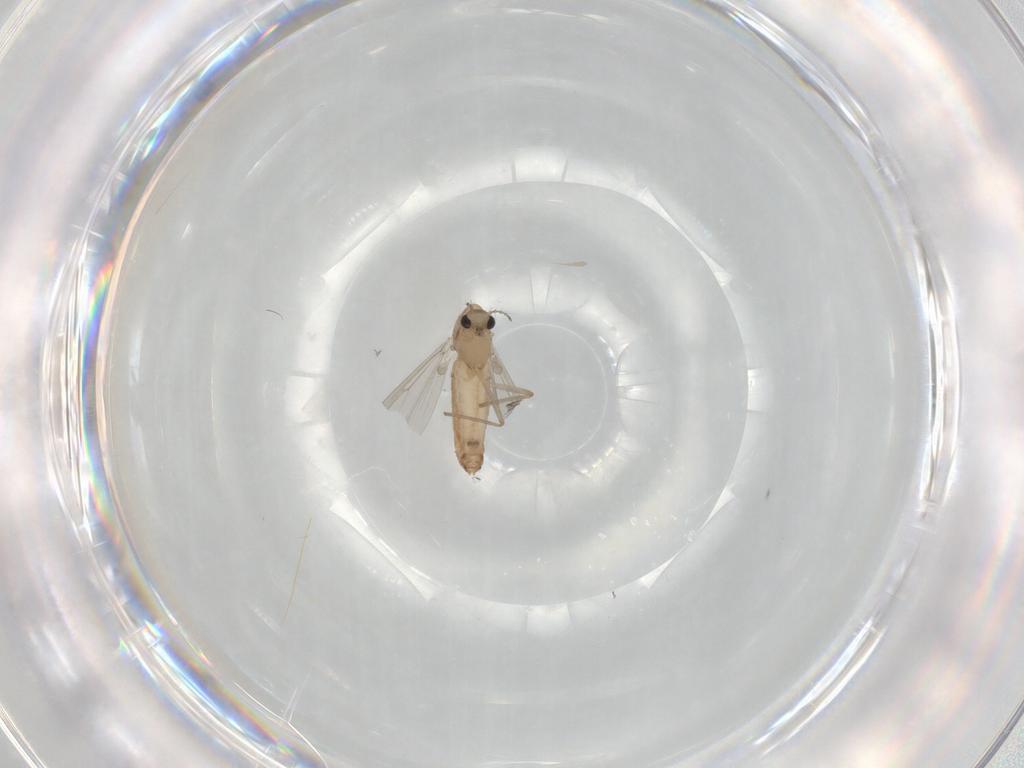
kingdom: Animalia
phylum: Arthropoda
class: Insecta
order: Diptera
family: Chironomidae
